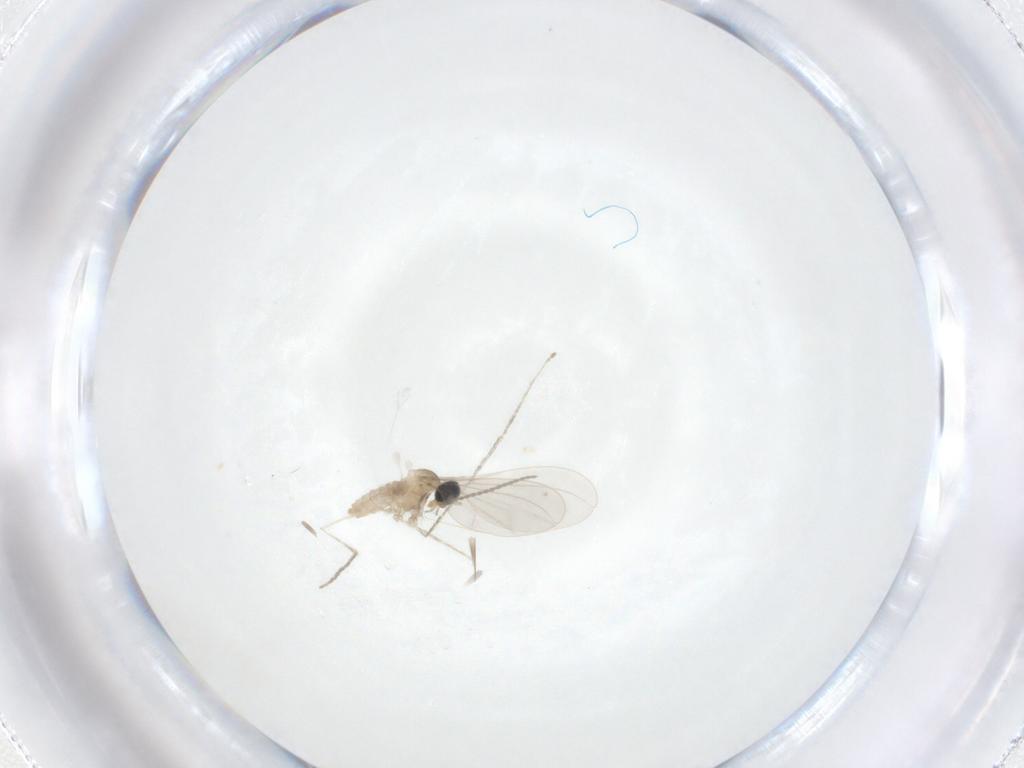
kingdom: Animalia
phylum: Arthropoda
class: Insecta
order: Diptera
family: Cecidomyiidae
